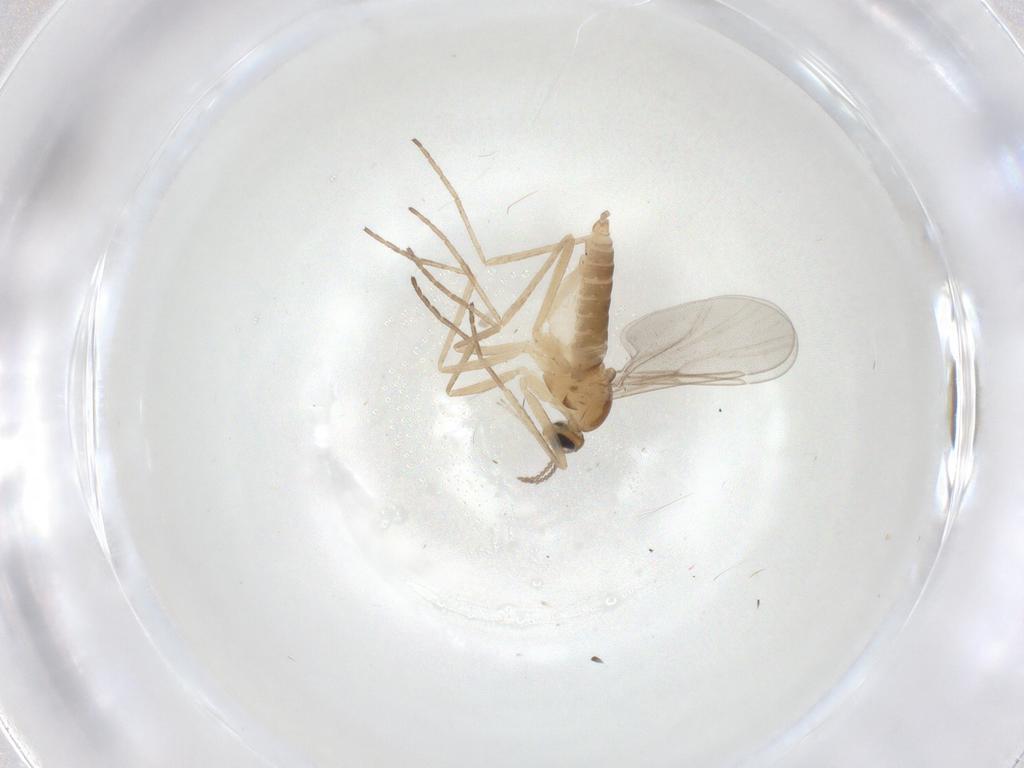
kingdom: Animalia
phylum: Arthropoda
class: Insecta
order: Diptera
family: Cecidomyiidae
